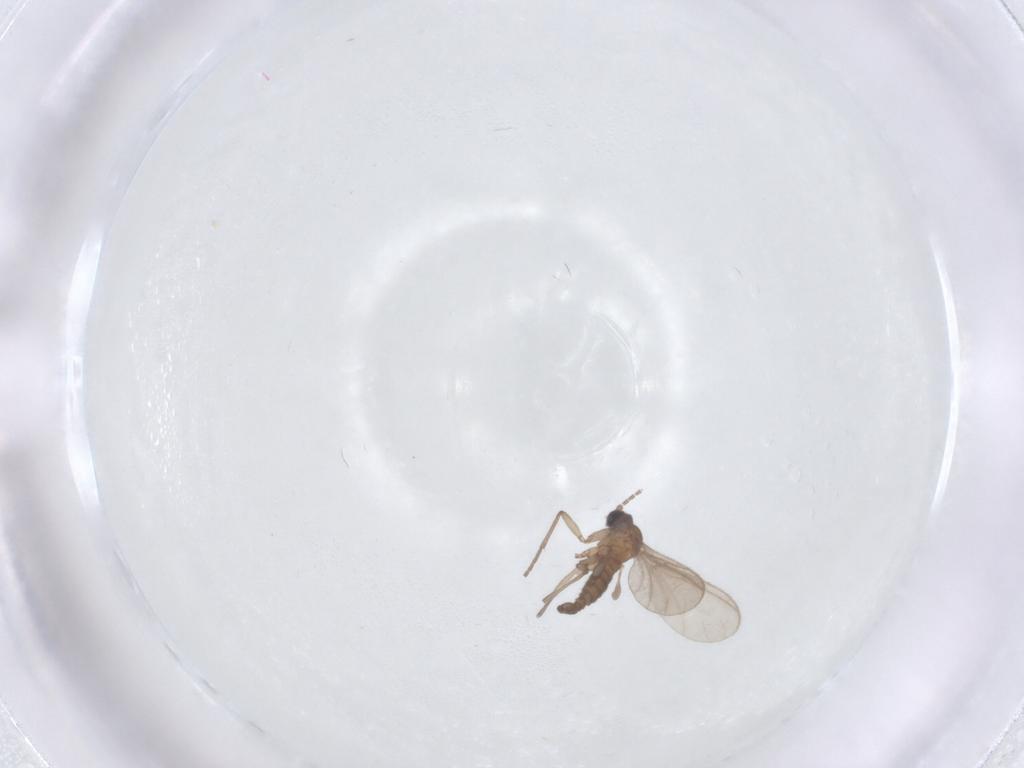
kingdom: Animalia
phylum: Arthropoda
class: Insecta
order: Diptera
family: Sciaridae
